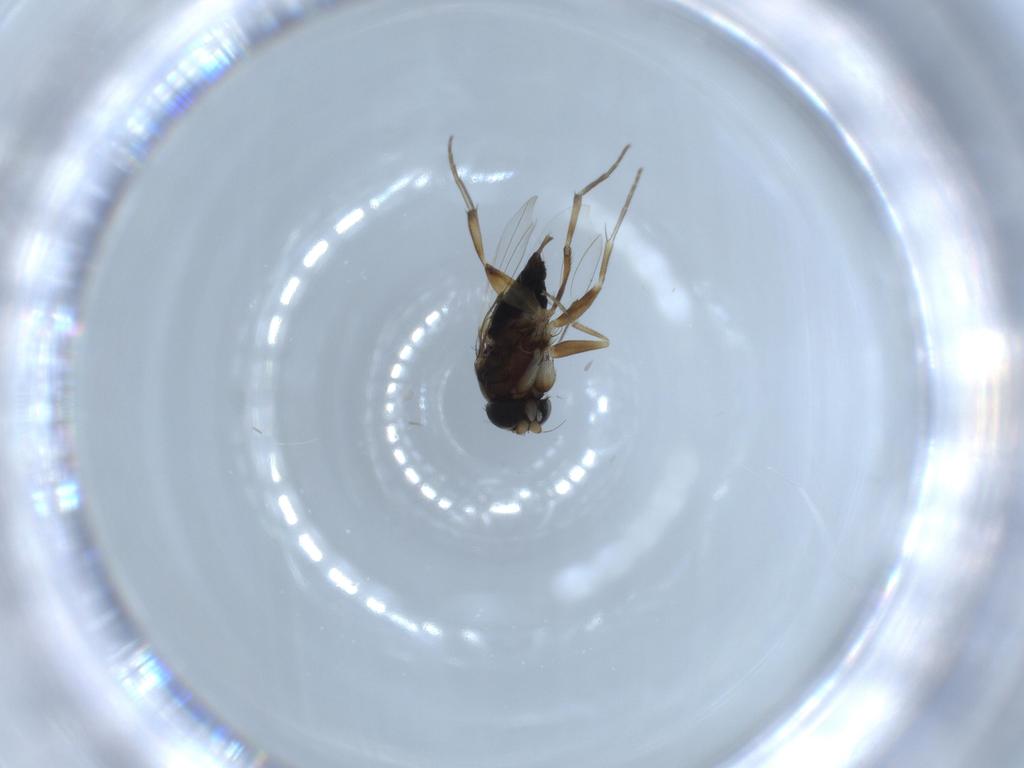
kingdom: Animalia
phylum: Arthropoda
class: Insecta
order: Diptera
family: Phoridae
